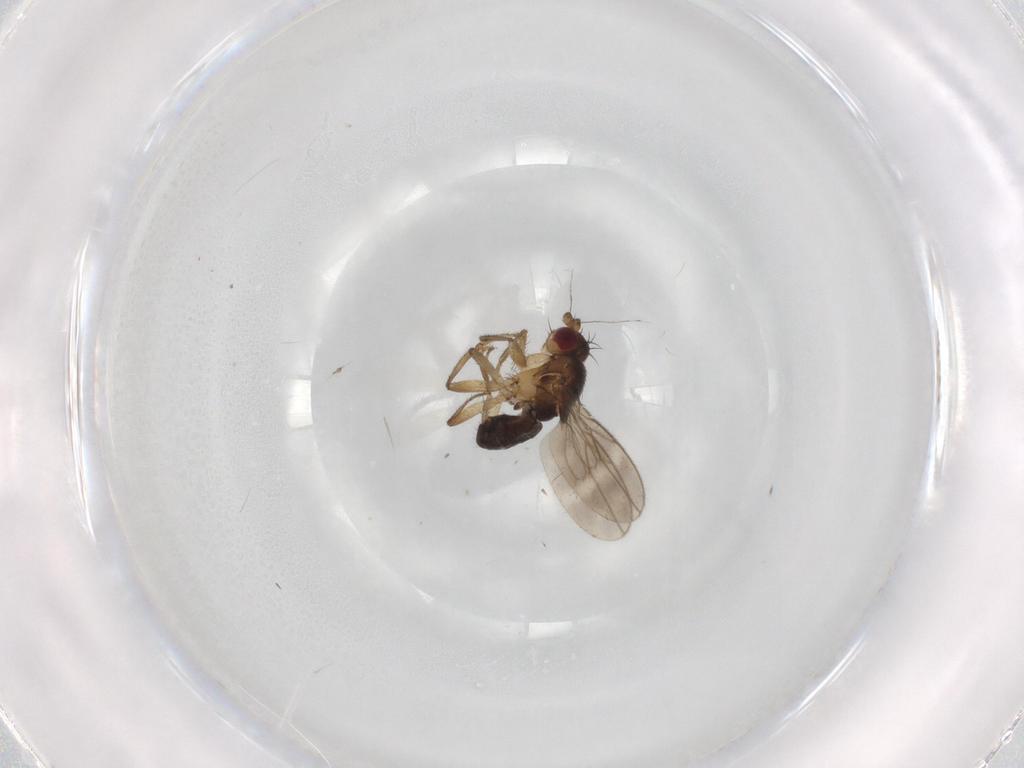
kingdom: Animalia
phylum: Arthropoda
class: Insecta
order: Diptera
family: Sphaeroceridae
